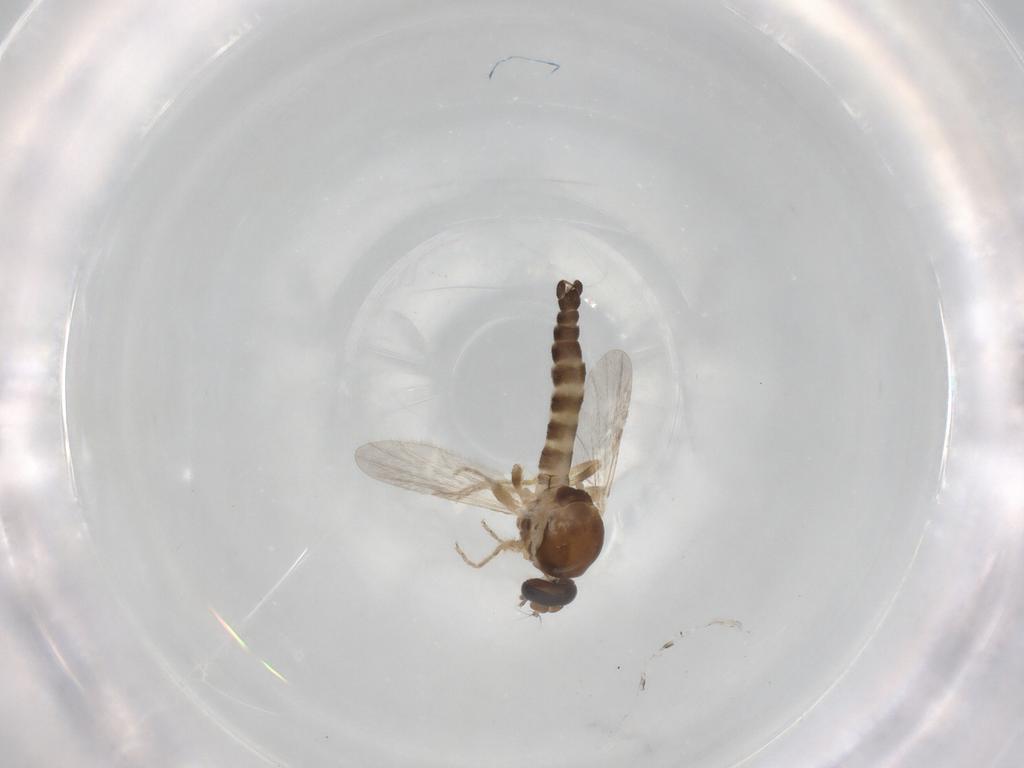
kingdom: Animalia
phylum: Arthropoda
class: Insecta
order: Diptera
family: Ceratopogonidae
